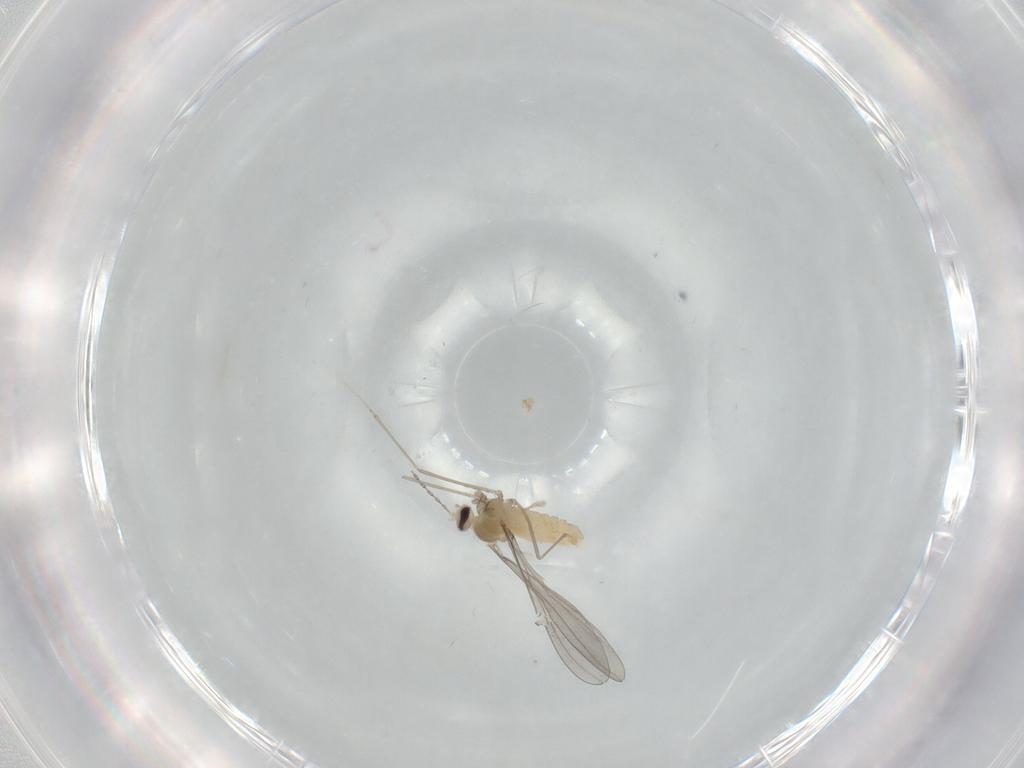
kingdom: Animalia
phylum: Arthropoda
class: Insecta
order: Diptera
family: Cecidomyiidae
